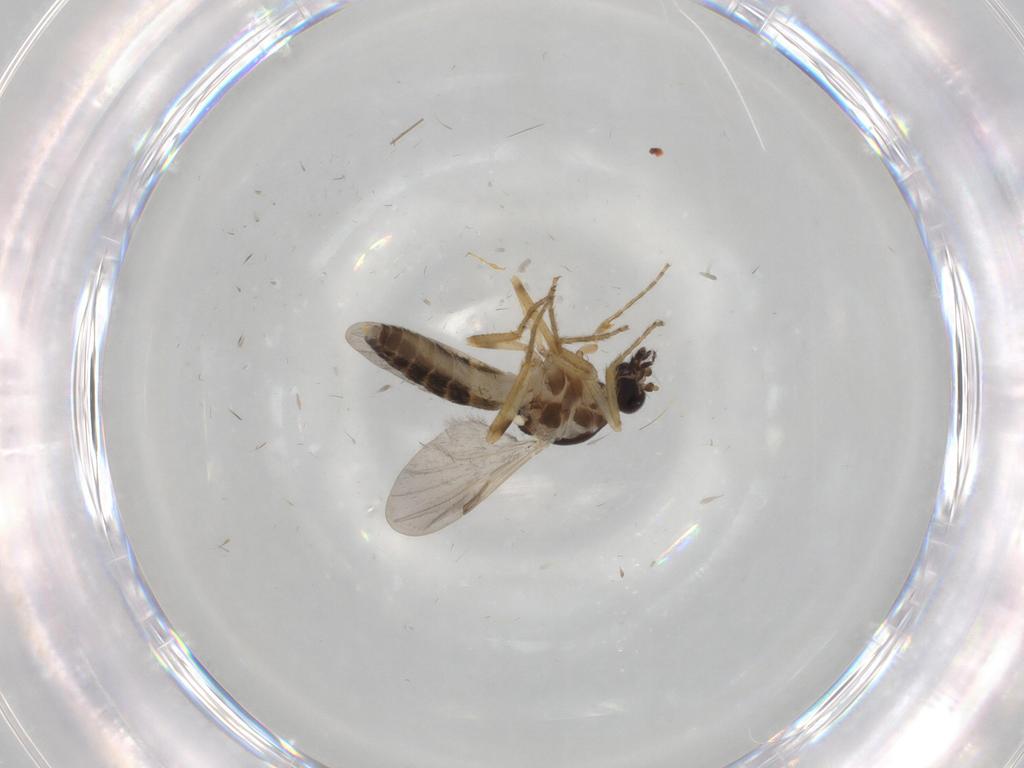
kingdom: Animalia
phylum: Arthropoda
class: Insecta
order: Diptera
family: Ceratopogonidae
